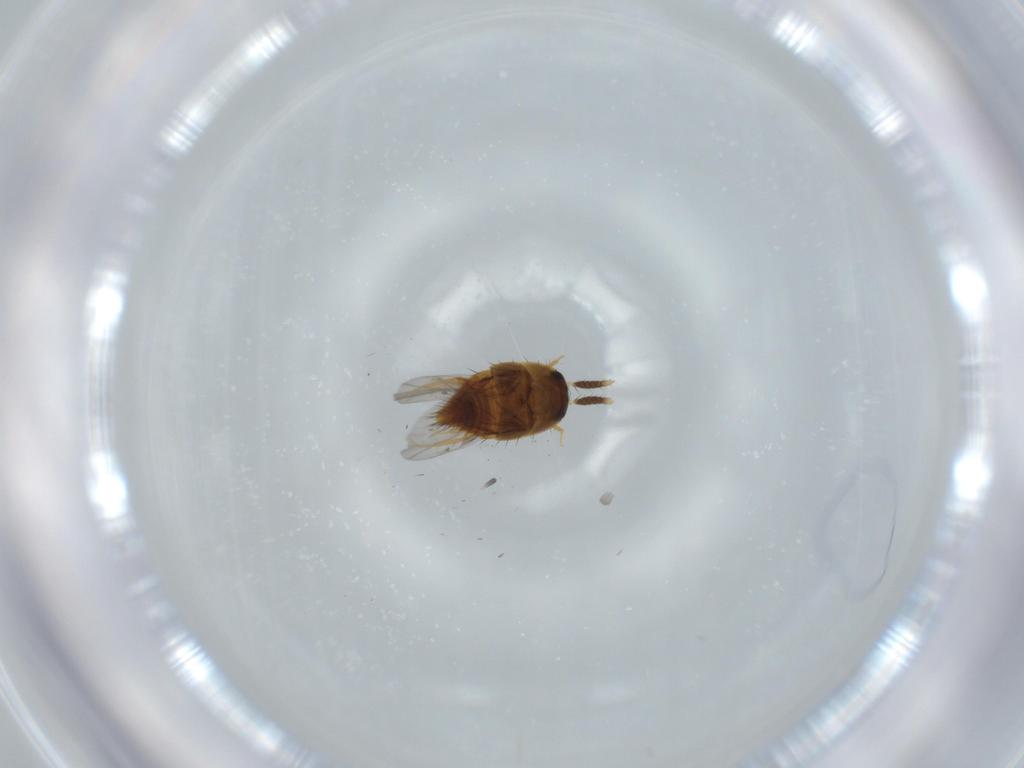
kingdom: Animalia
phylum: Arthropoda
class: Insecta
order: Coleoptera
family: Staphylinidae
